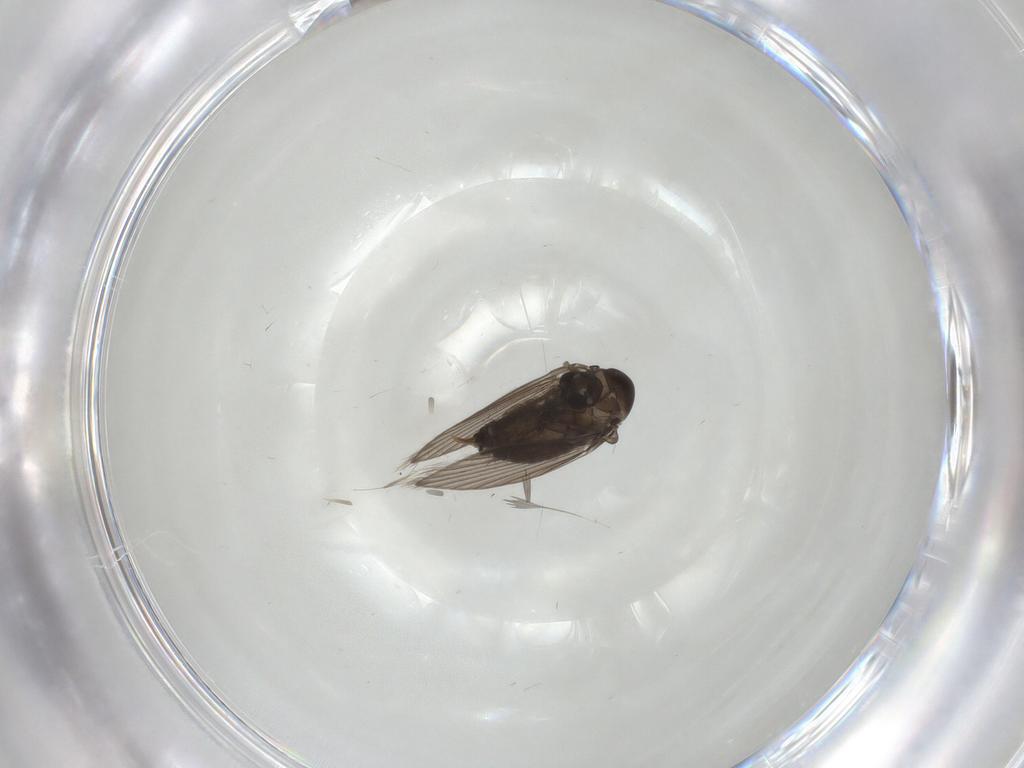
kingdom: Animalia
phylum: Arthropoda
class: Insecta
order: Diptera
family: Ceratopogonidae
